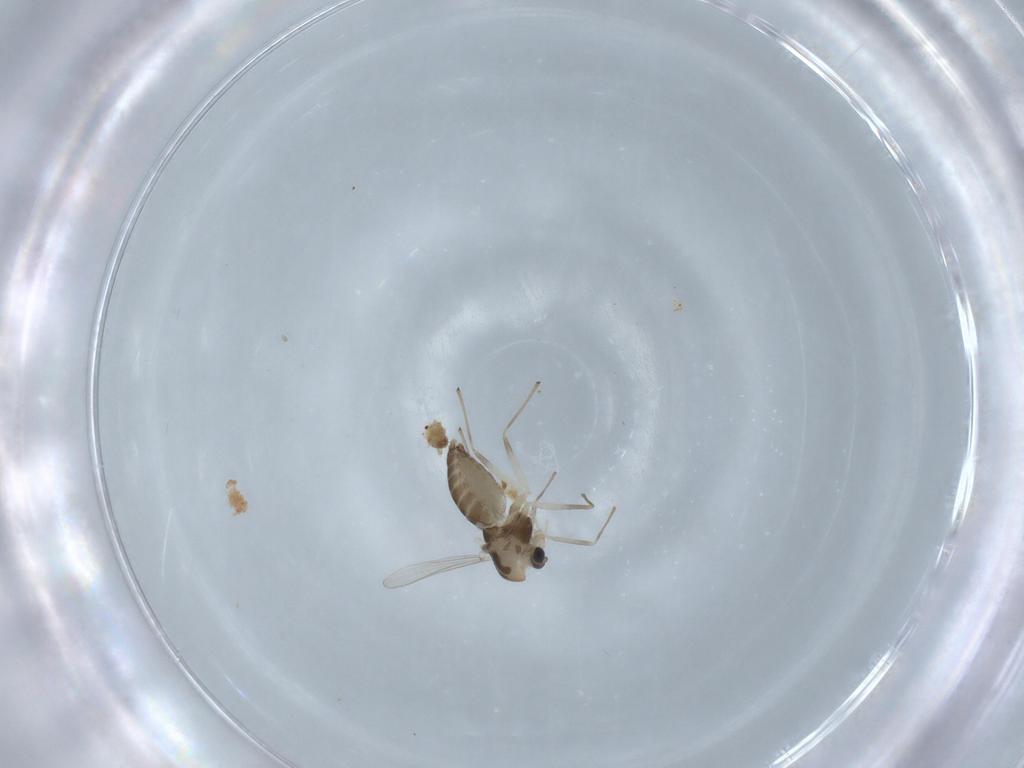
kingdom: Animalia
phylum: Arthropoda
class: Insecta
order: Diptera
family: Chironomidae
